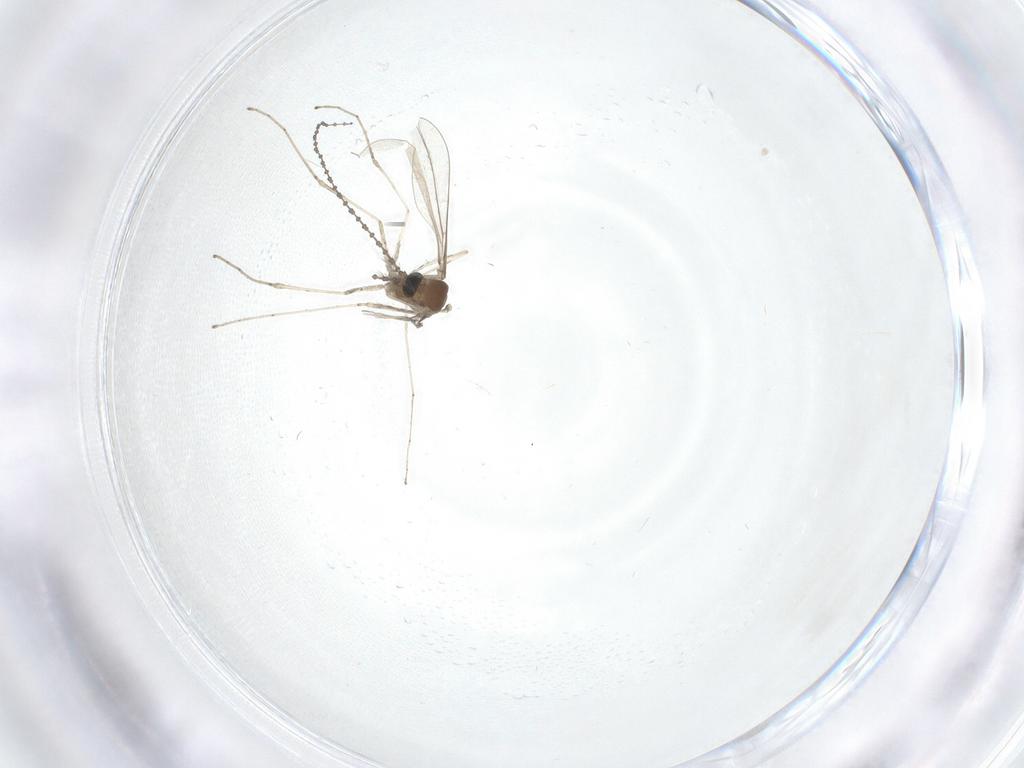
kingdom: Animalia
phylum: Arthropoda
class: Insecta
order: Diptera
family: Cecidomyiidae
